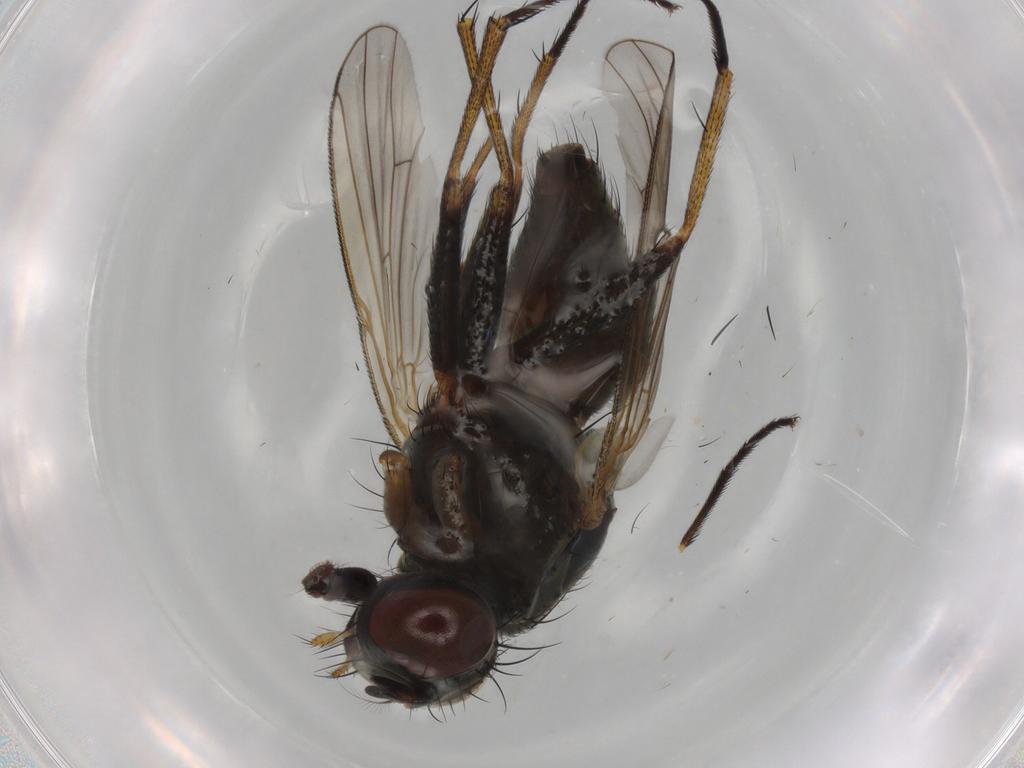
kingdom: Animalia
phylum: Arthropoda
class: Insecta
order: Diptera
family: Muscidae
